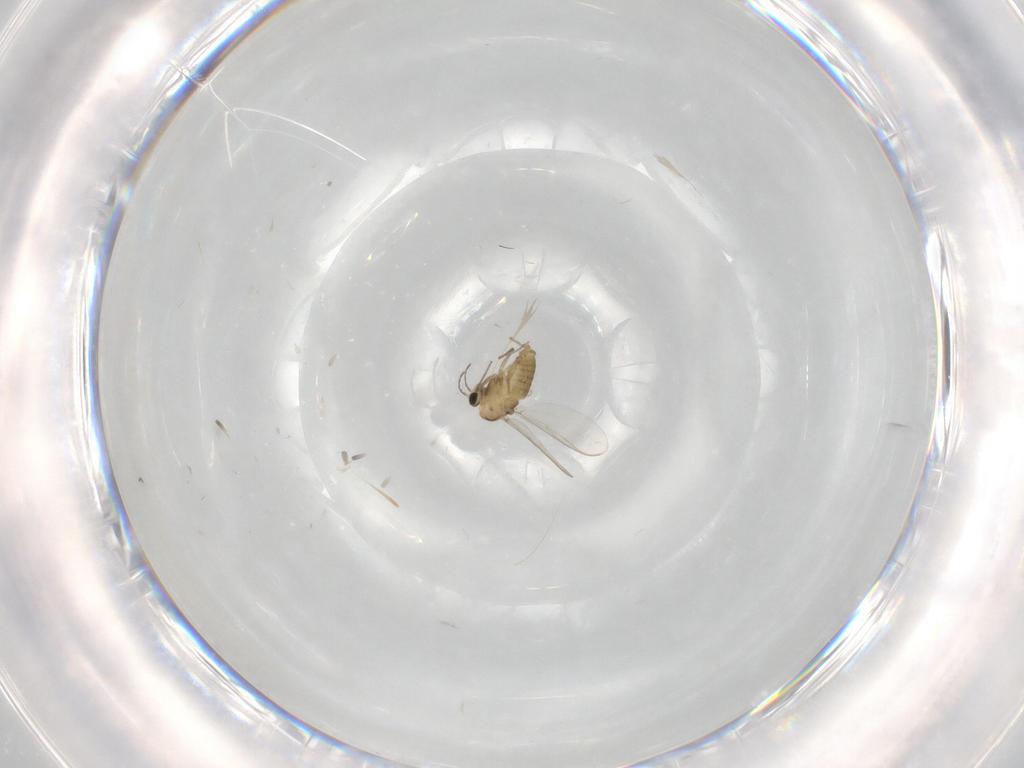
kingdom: Animalia
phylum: Arthropoda
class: Insecta
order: Diptera
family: Chironomidae
